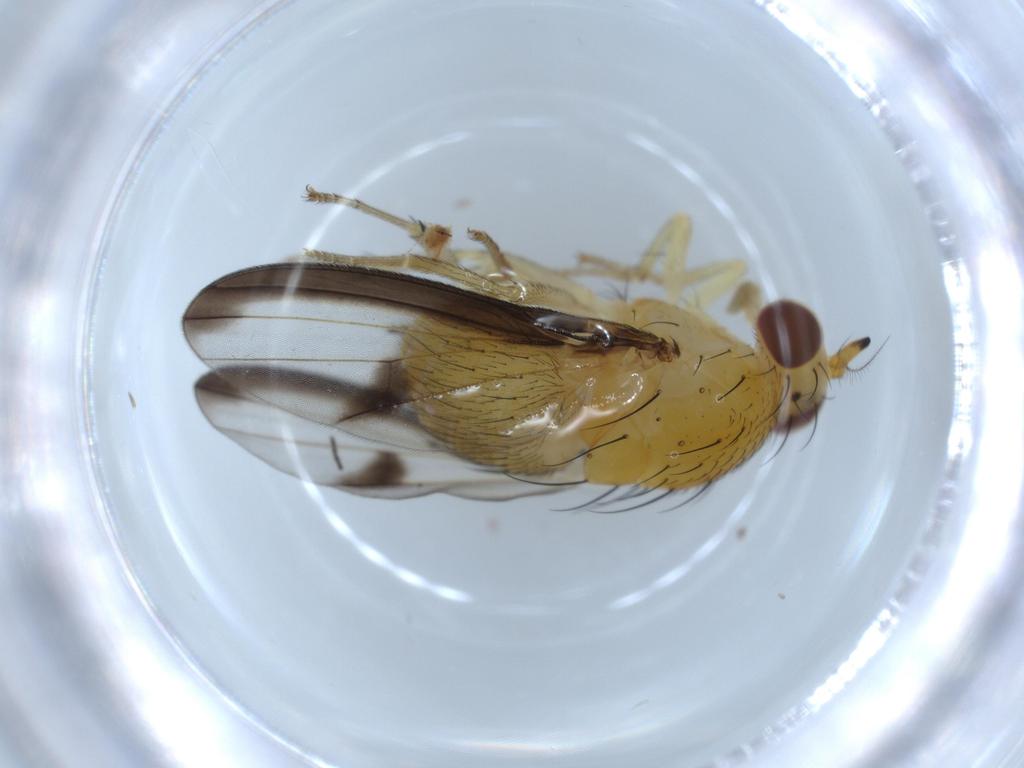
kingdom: Animalia
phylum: Arthropoda
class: Insecta
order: Diptera
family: Lauxaniidae
